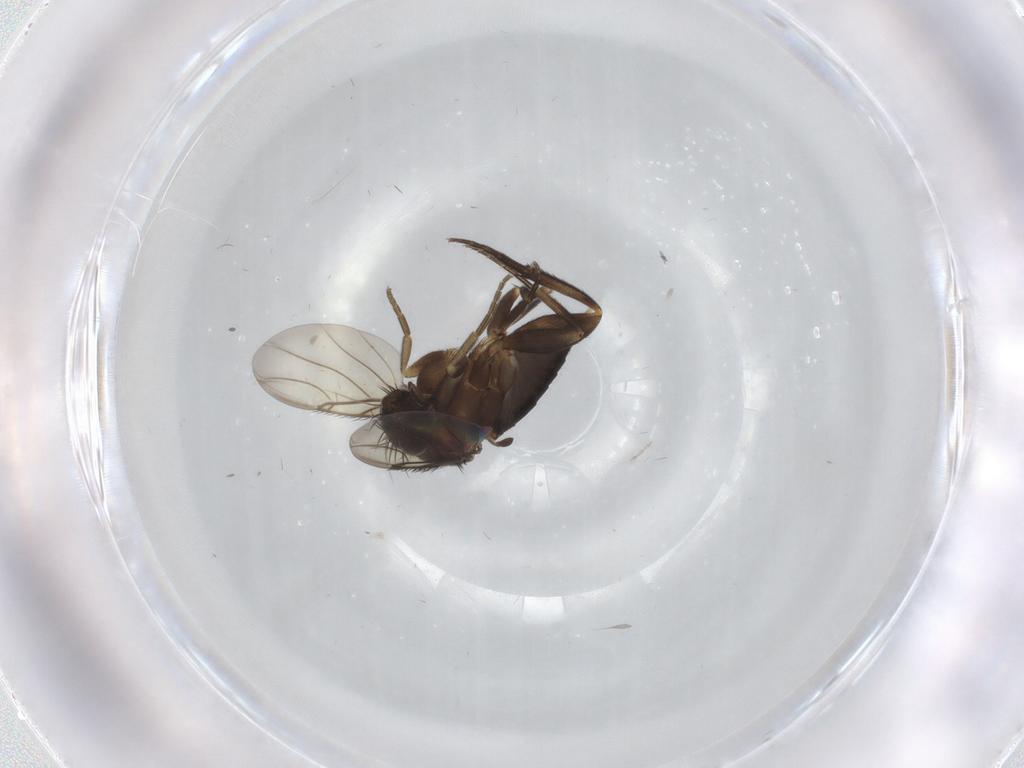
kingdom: Animalia
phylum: Arthropoda
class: Insecta
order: Diptera
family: Phoridae
